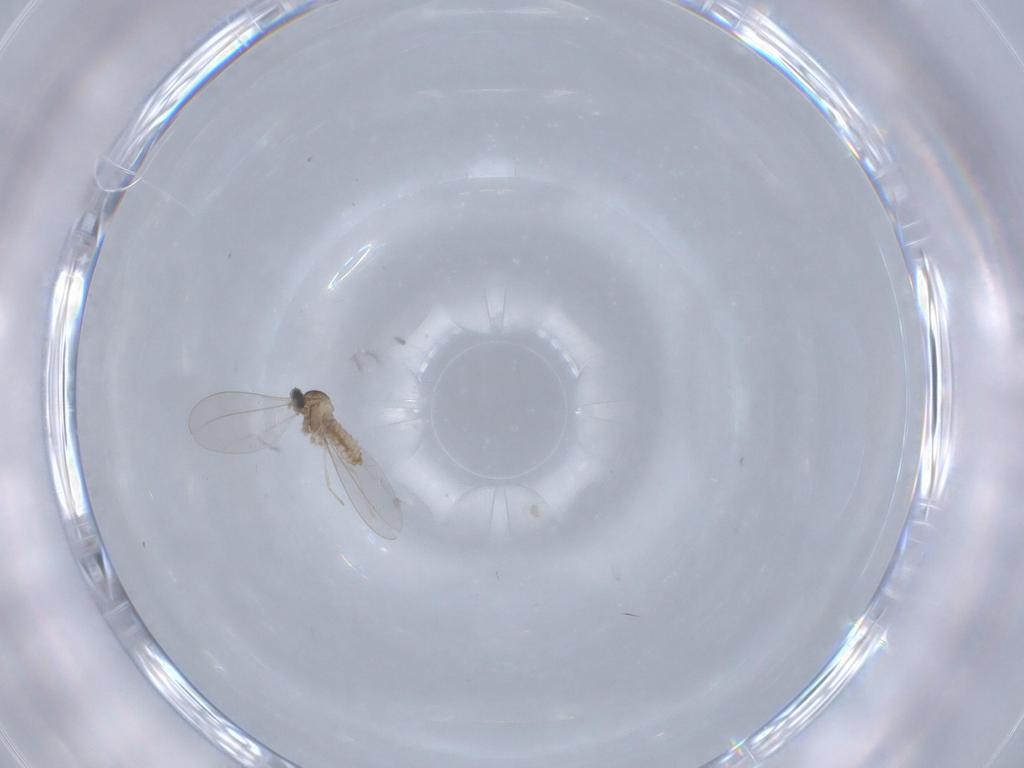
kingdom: Animalia
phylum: Arthropoda
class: Insecta
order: Diptera
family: Cecidomyiidae
